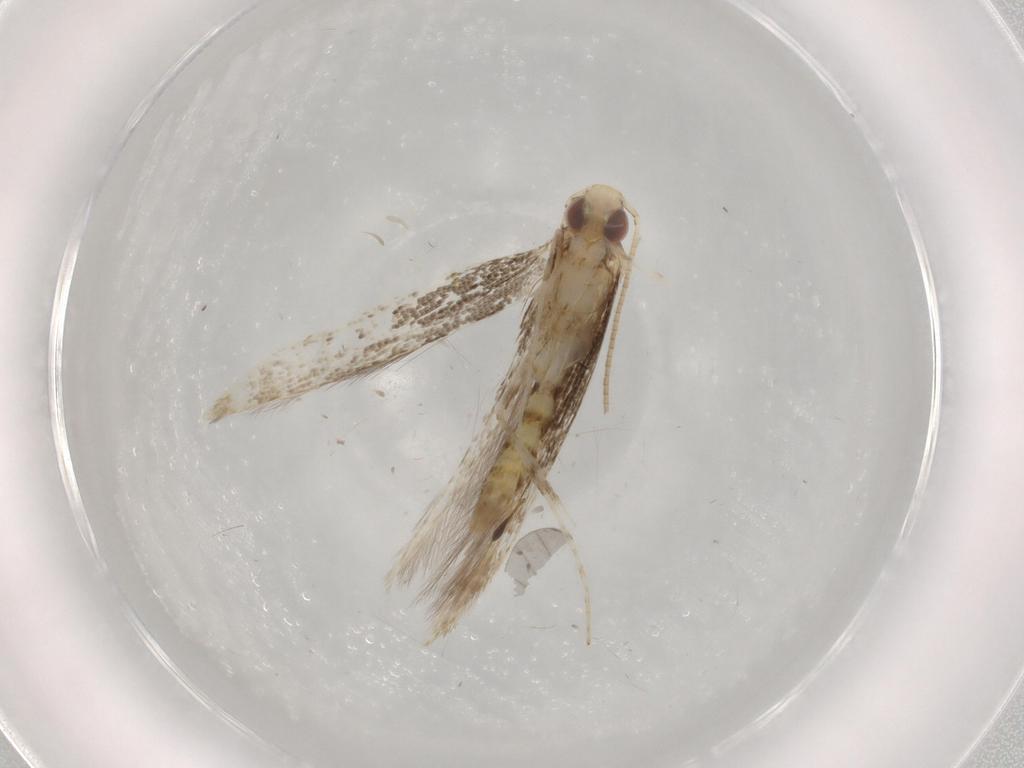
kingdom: Animalia
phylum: Arthropoda
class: Insecta
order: Lepidoptera
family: Gracillariidae
